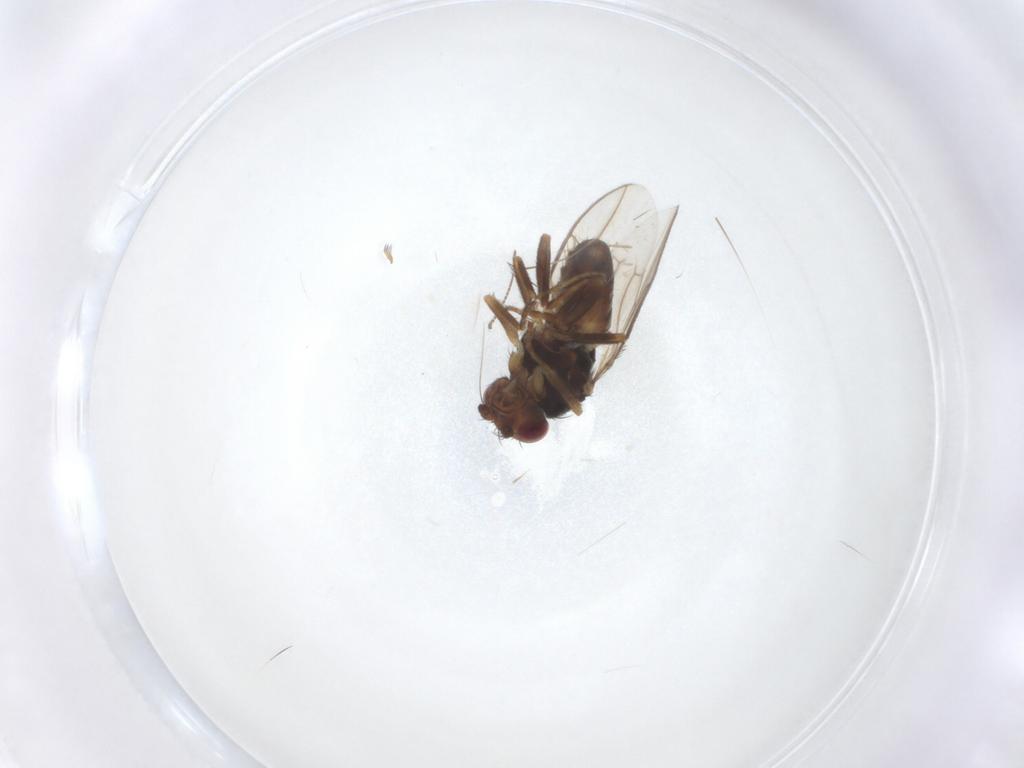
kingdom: Animalia
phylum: Arthropoda
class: Insecta
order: Diptera
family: Sphaeroceridae
